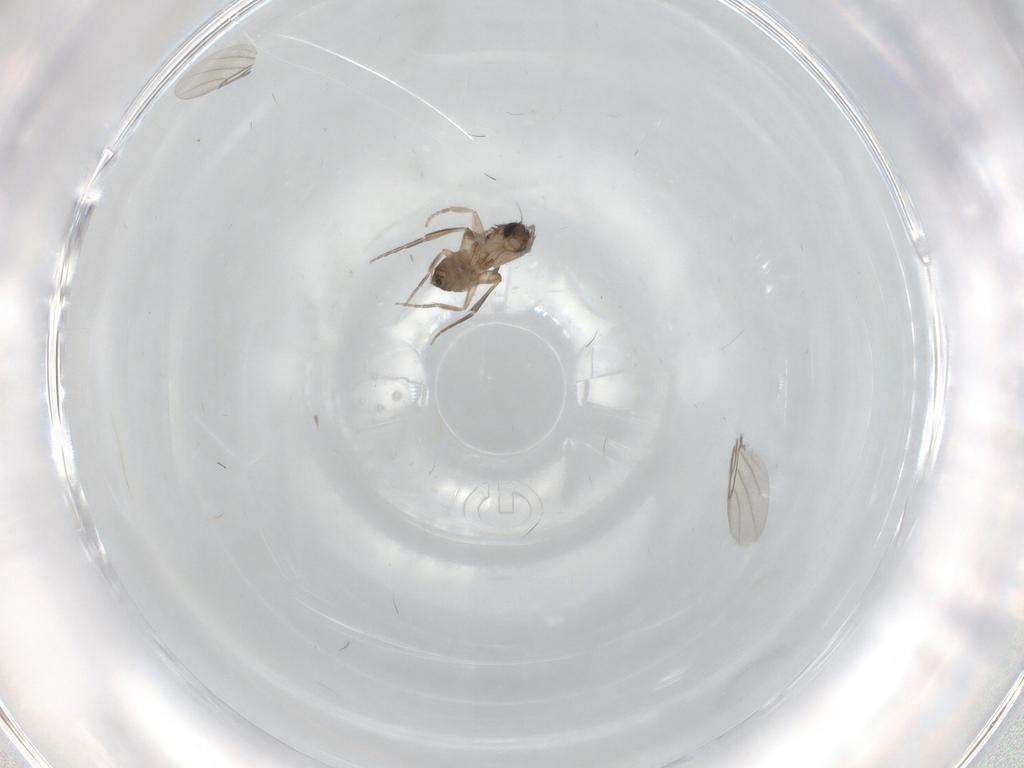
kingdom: Animalia
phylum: Arthropoda
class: Insecta
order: Diptera
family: Phoridae
